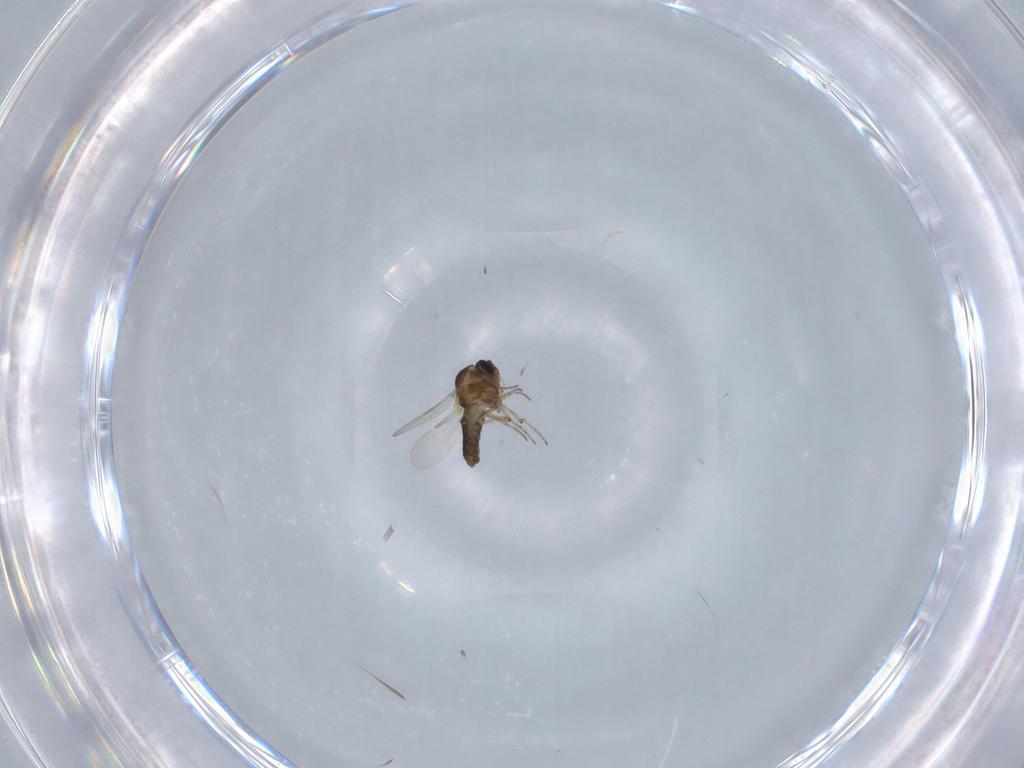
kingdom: Animalia
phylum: Arthropoda
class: Insecta
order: Diptera
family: Ceratopogonidae
